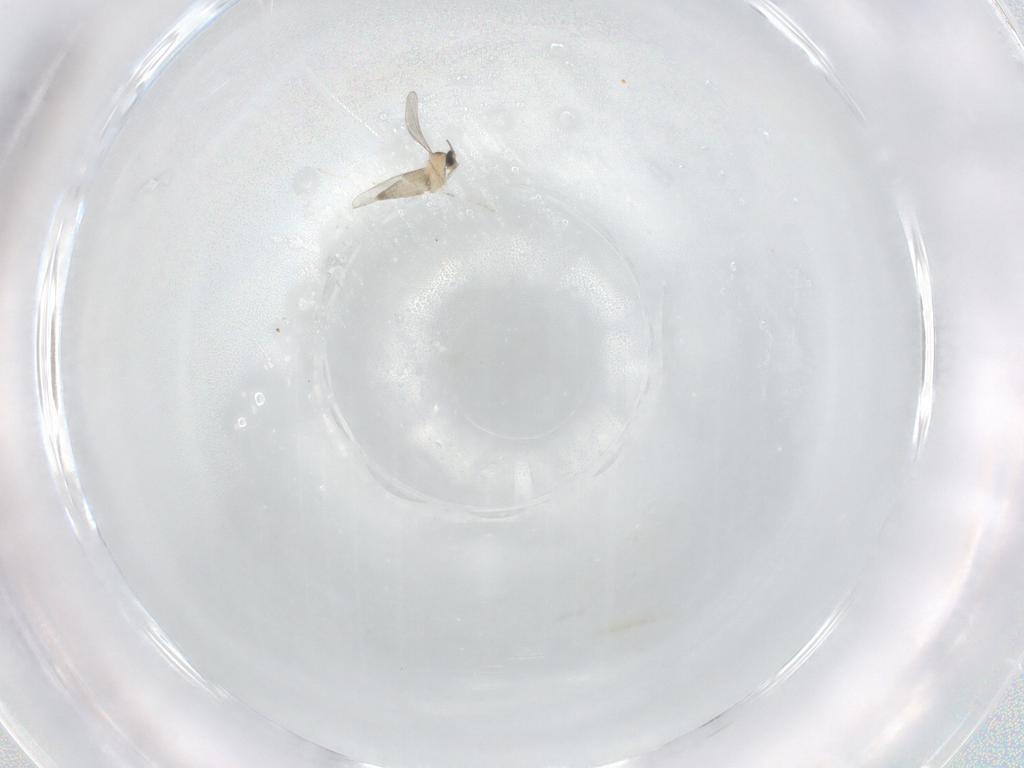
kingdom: Animalia
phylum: Arthropoda
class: Insecta
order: Diptera
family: Cecidomyiidae
